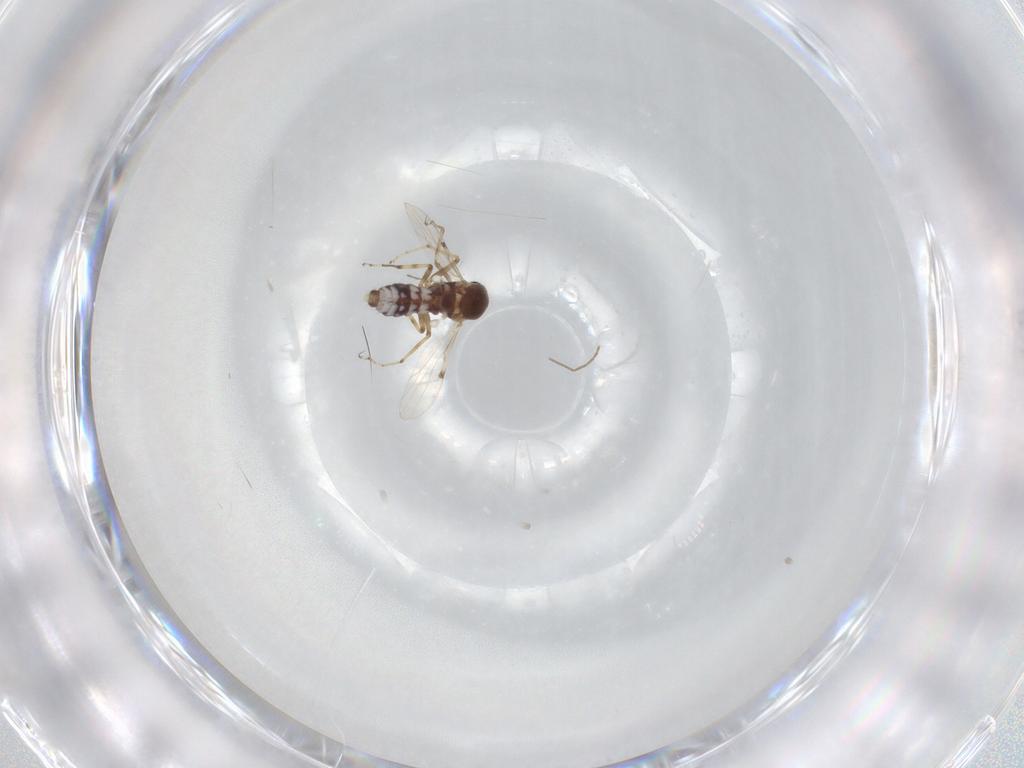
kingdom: Animalia
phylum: Arthropoda
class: Insecta
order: Diptera
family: Ceratopogonidae
